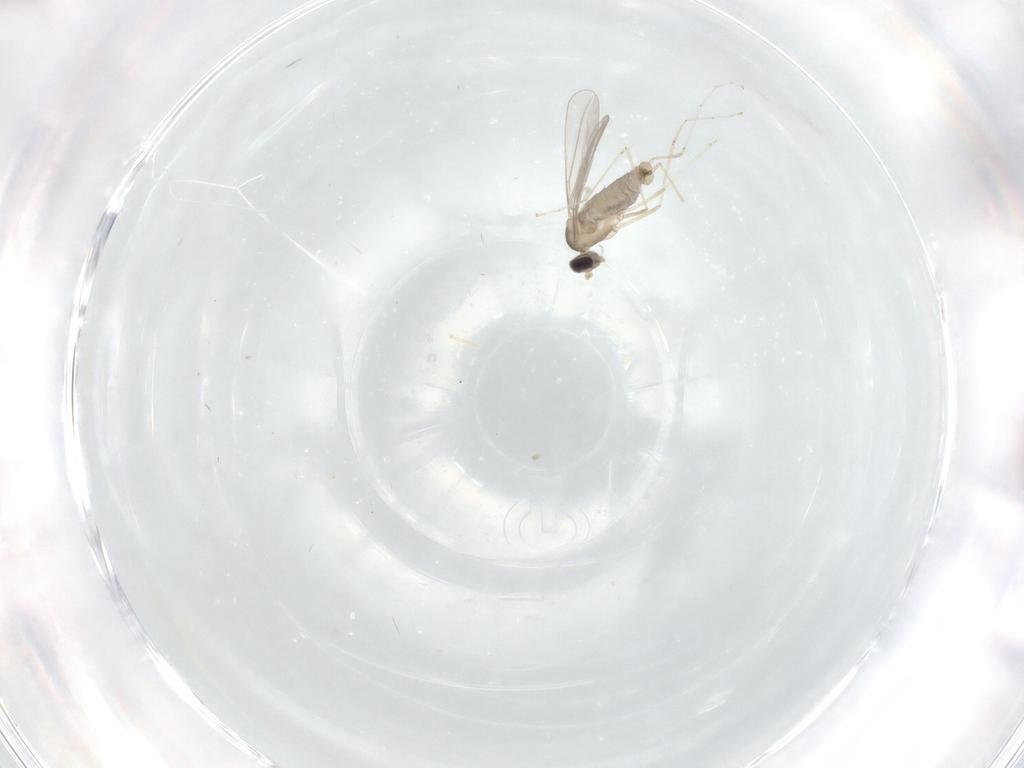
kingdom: Animalia
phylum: Arthropoda
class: Insecta
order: Diptera
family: Cecidomyiidae
